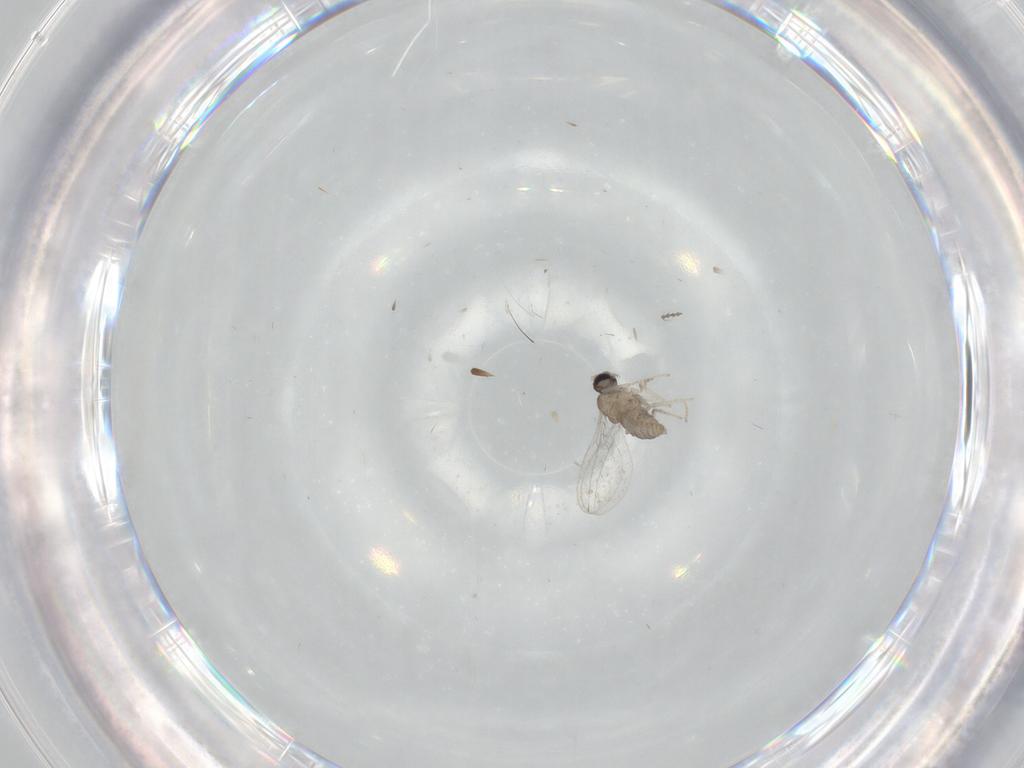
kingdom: Animalia
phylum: Arthropoda
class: Insecta
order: Diptera
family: Cecidomyiidae
